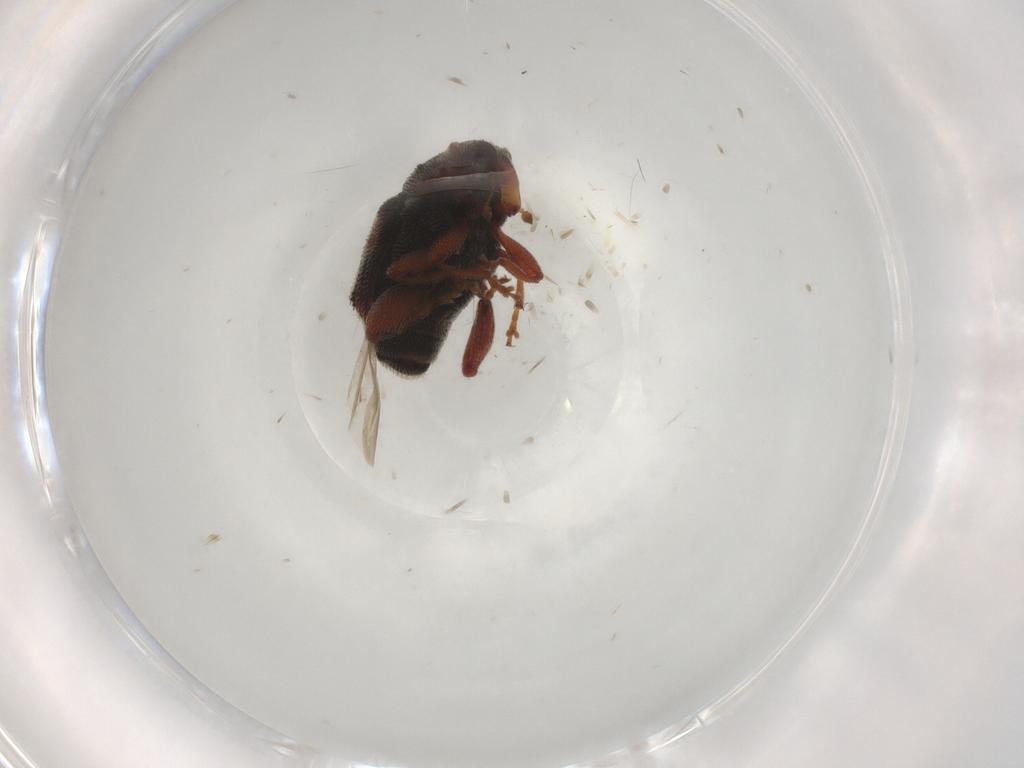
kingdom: Animalia
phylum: Arthropoda
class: Insecta
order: Coleoptera
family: Curculionidae
